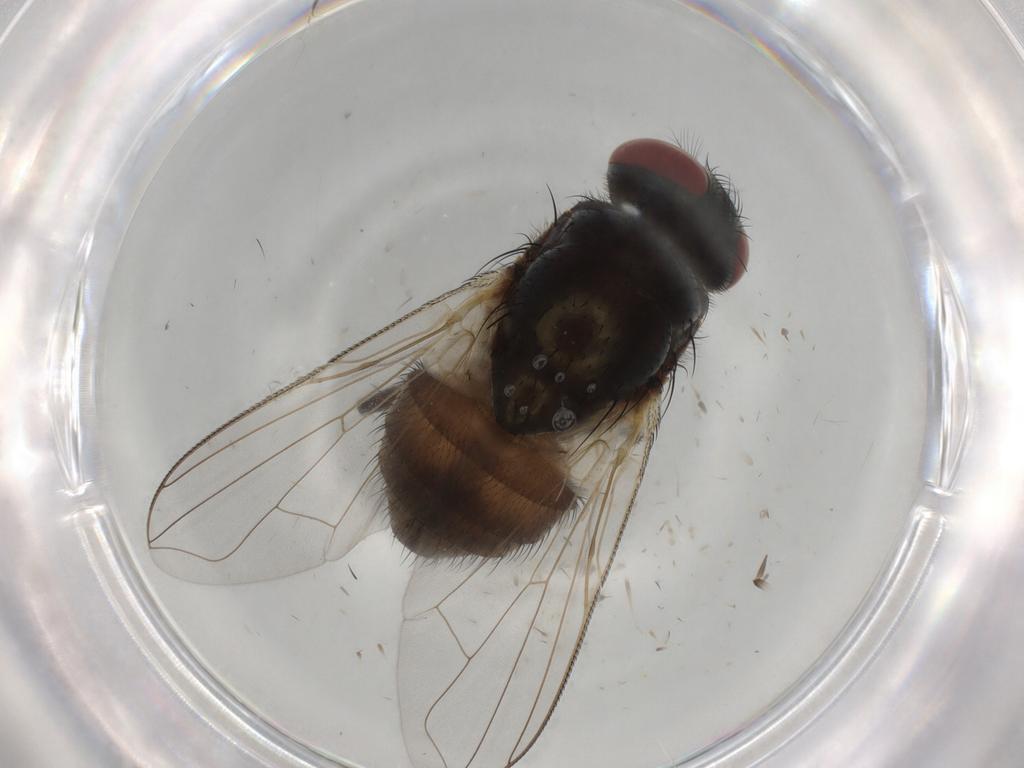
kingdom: Animalia
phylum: Arthropoda
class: Insecta
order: Diptera
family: Muscidae
